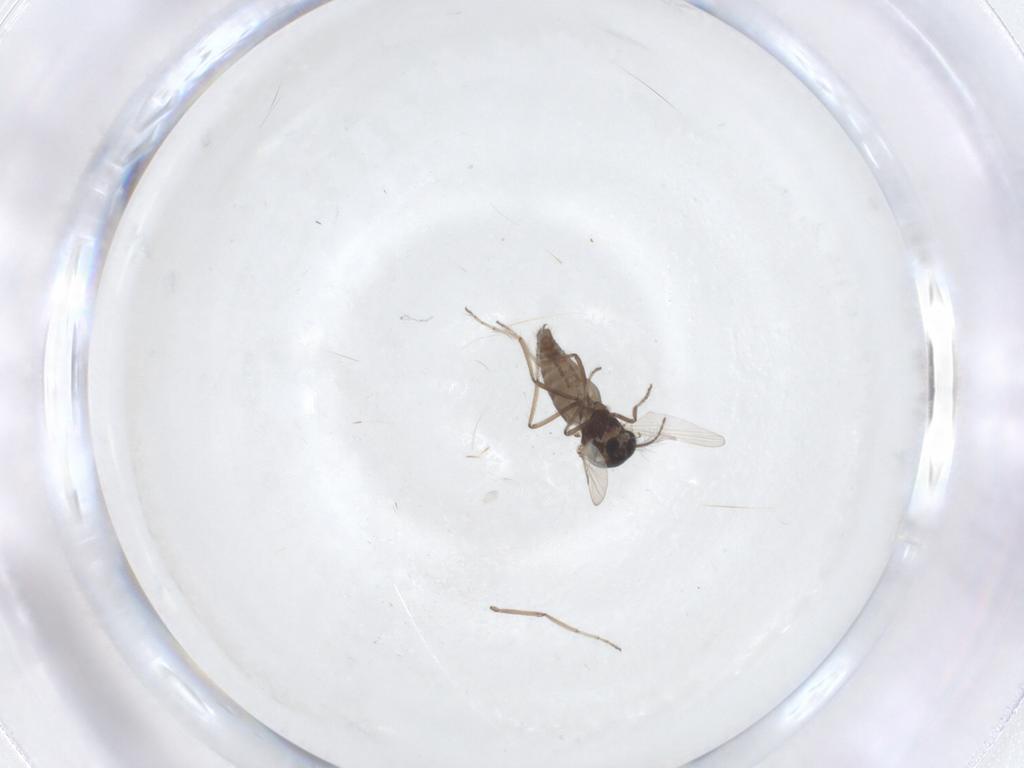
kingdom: Animalia
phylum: Arthropoda
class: Insecta
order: Diptera
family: Ceratopogonidae
